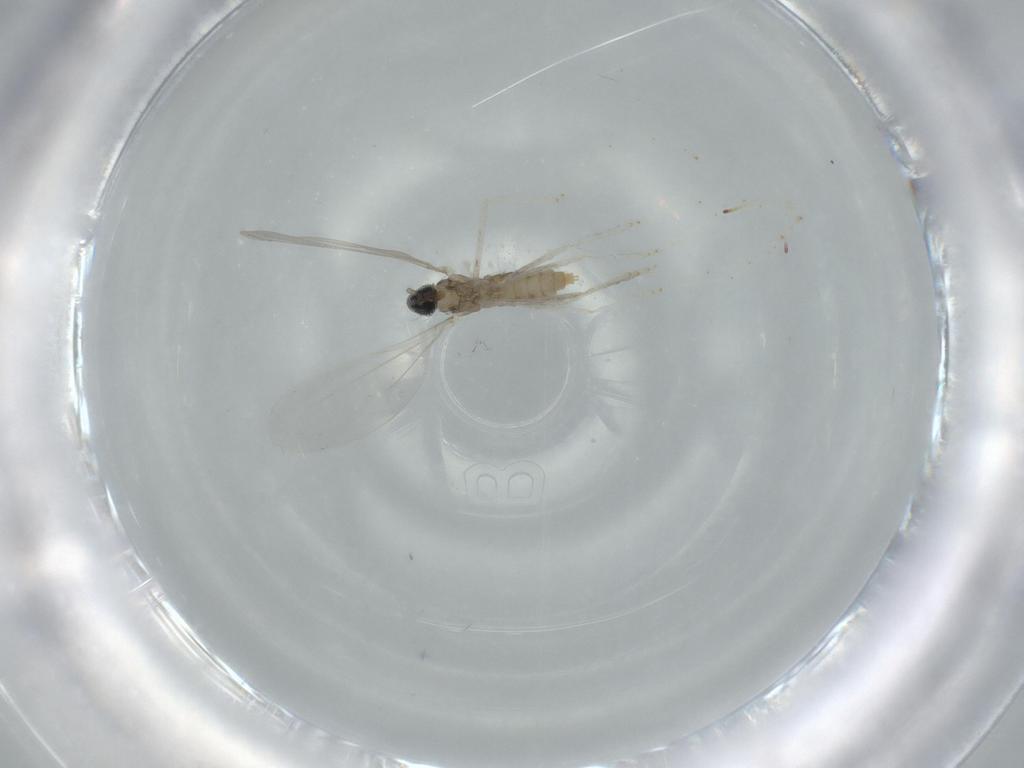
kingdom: Animalia
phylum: Arthropoda
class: Insecta
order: Diptera
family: Cecidomyiidae
